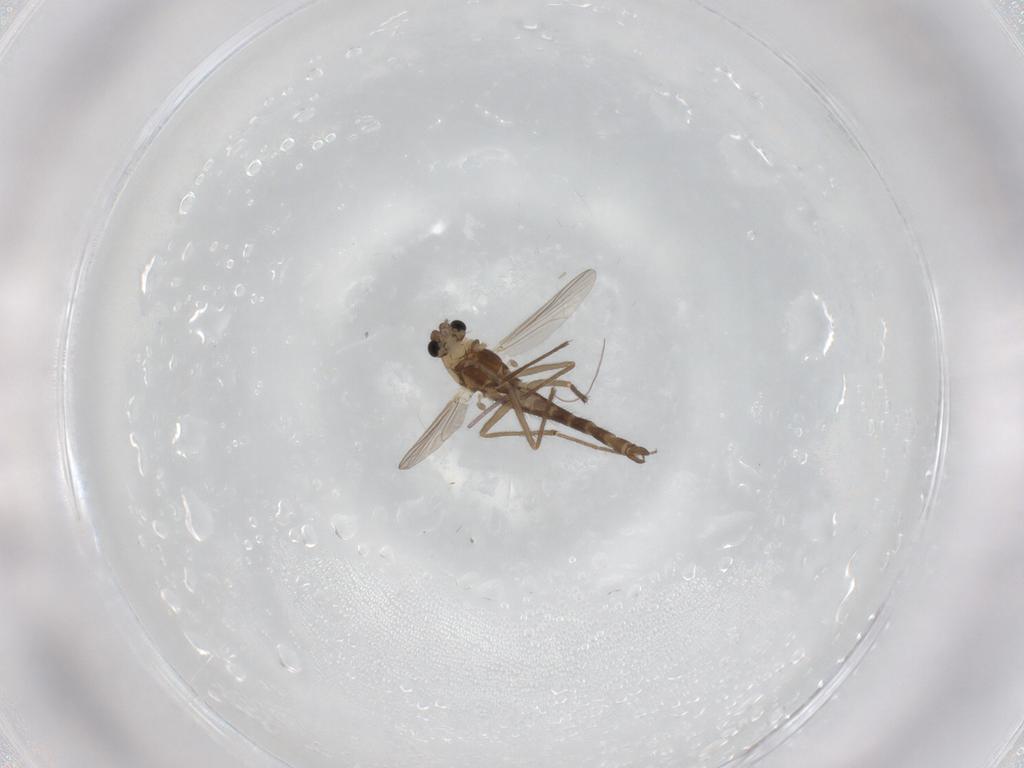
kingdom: Animalia
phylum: Arthropoda
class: Insecta
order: Diptera
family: Chironomidae
